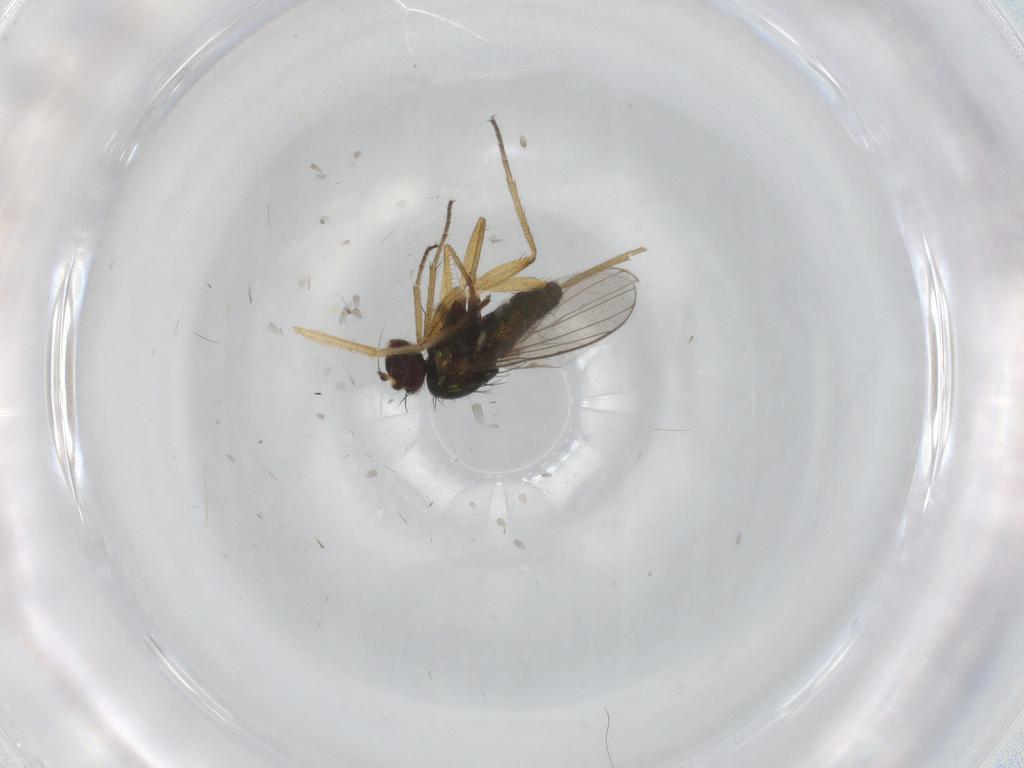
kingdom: Animalia
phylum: Arthropoda
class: Insecta
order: Diptera
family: Dolichopodidae
